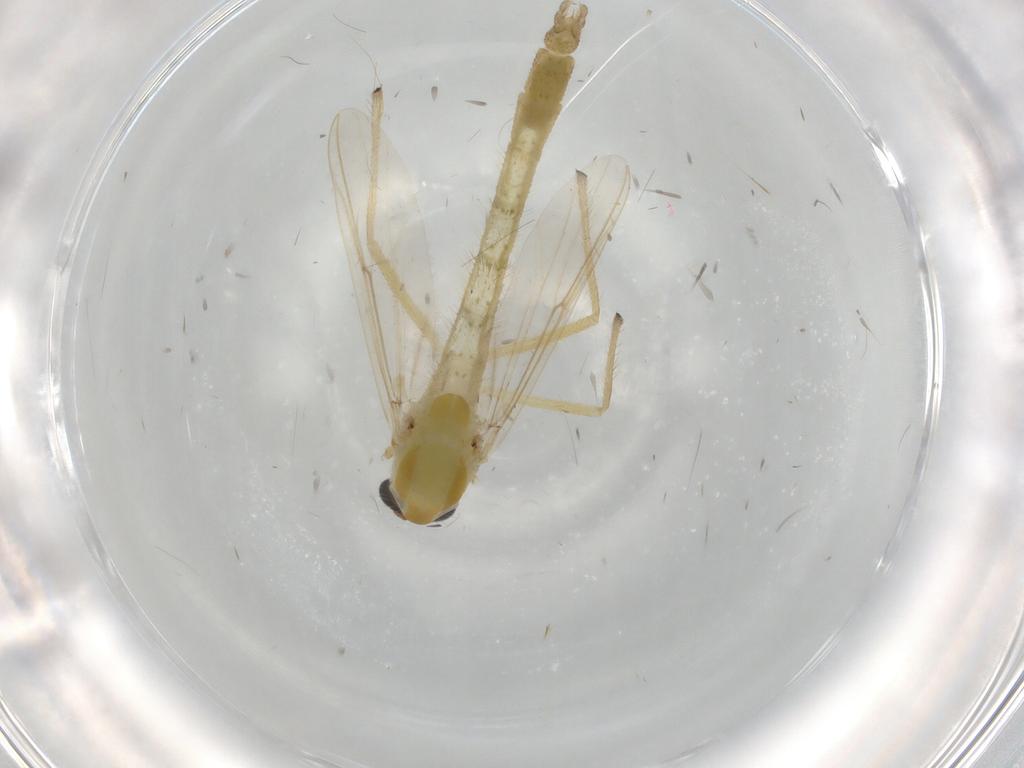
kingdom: Animalia
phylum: Arthropoda
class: Insecta
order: Diptera
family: Chironomidae
